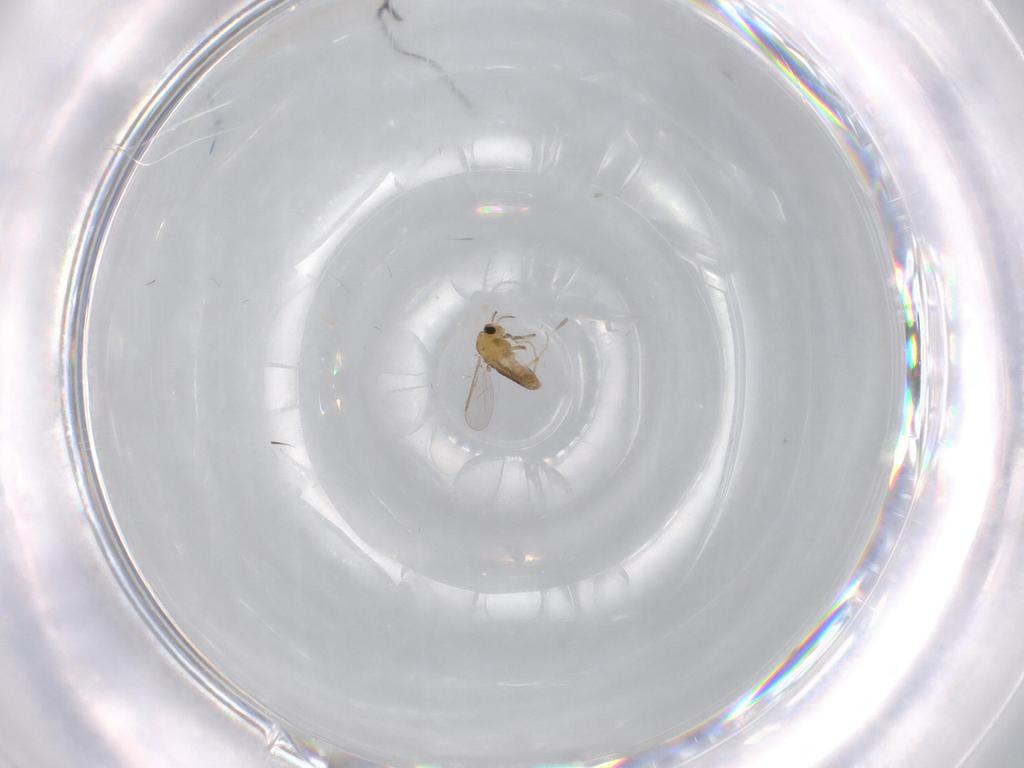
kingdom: Animalia
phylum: Arthropoda
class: Insecta
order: Diptera
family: Limoniidae
